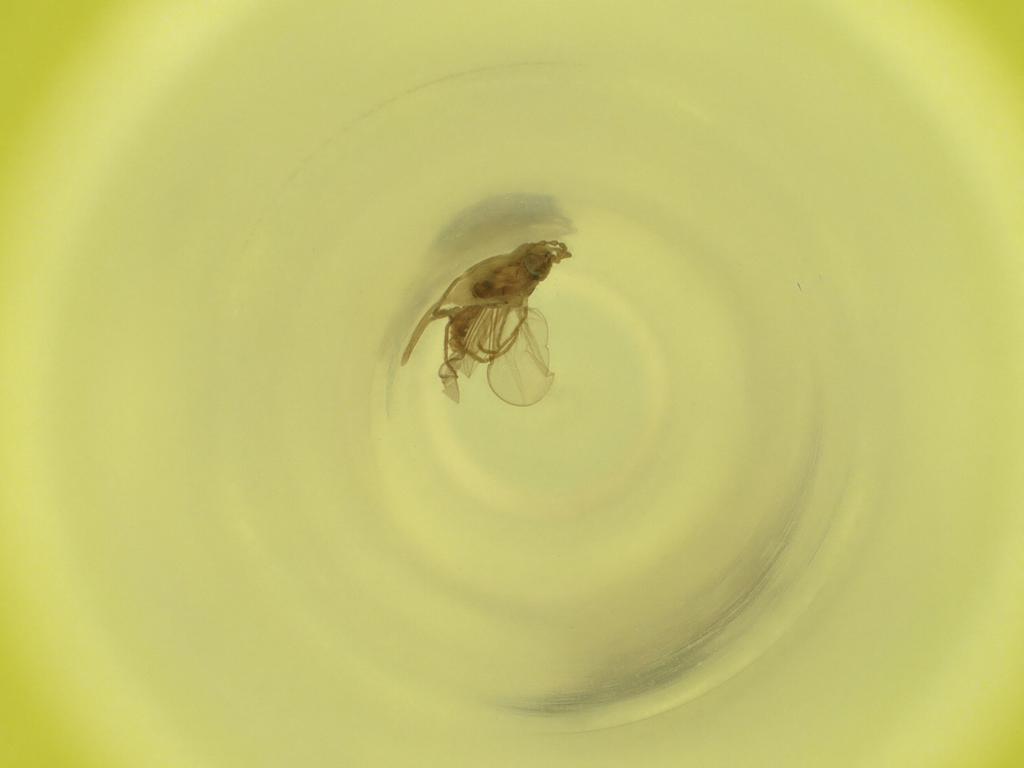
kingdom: Animalia
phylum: Arthropoda
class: Insecta
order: Diptera
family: Cecidomyiidae
